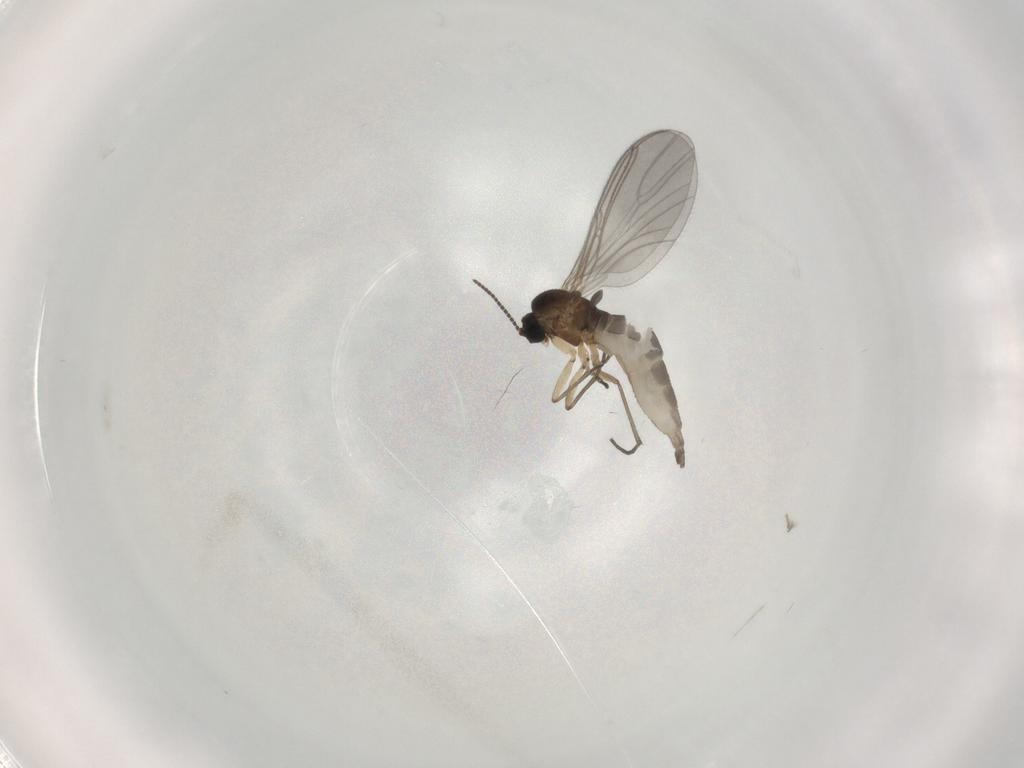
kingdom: Animalia
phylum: Arthropoda
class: Insecta
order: Diptera
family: Sciaridae
